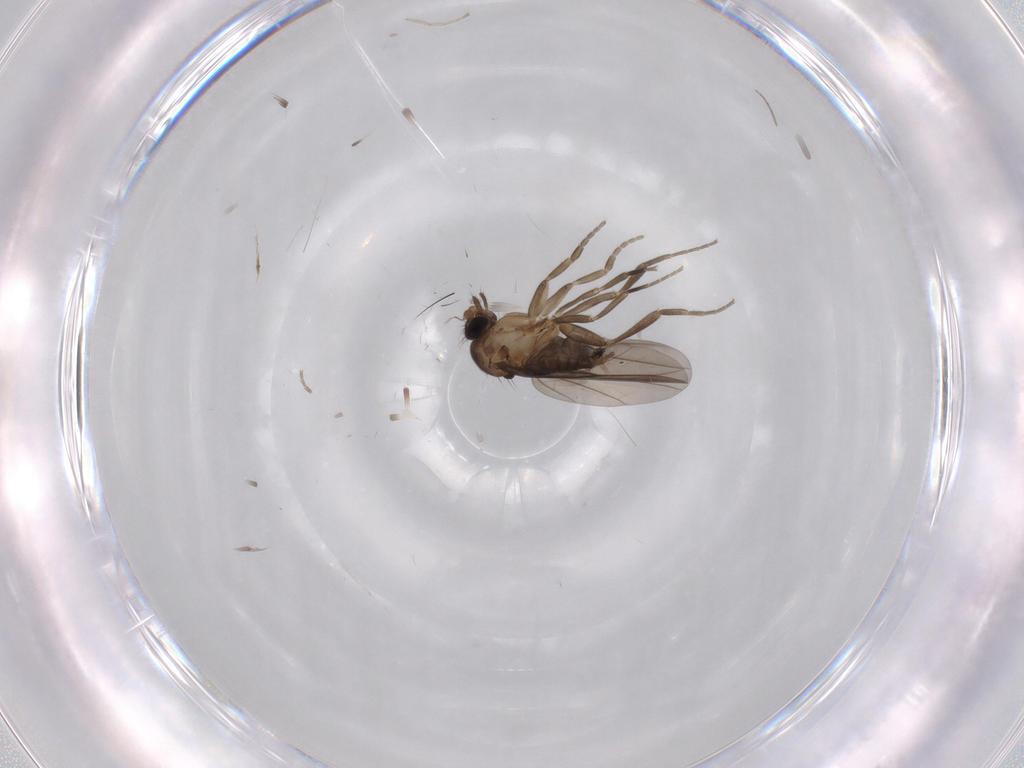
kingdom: Animalia
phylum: Arthropoda
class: Insecta
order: Diptera
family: Phoridae
